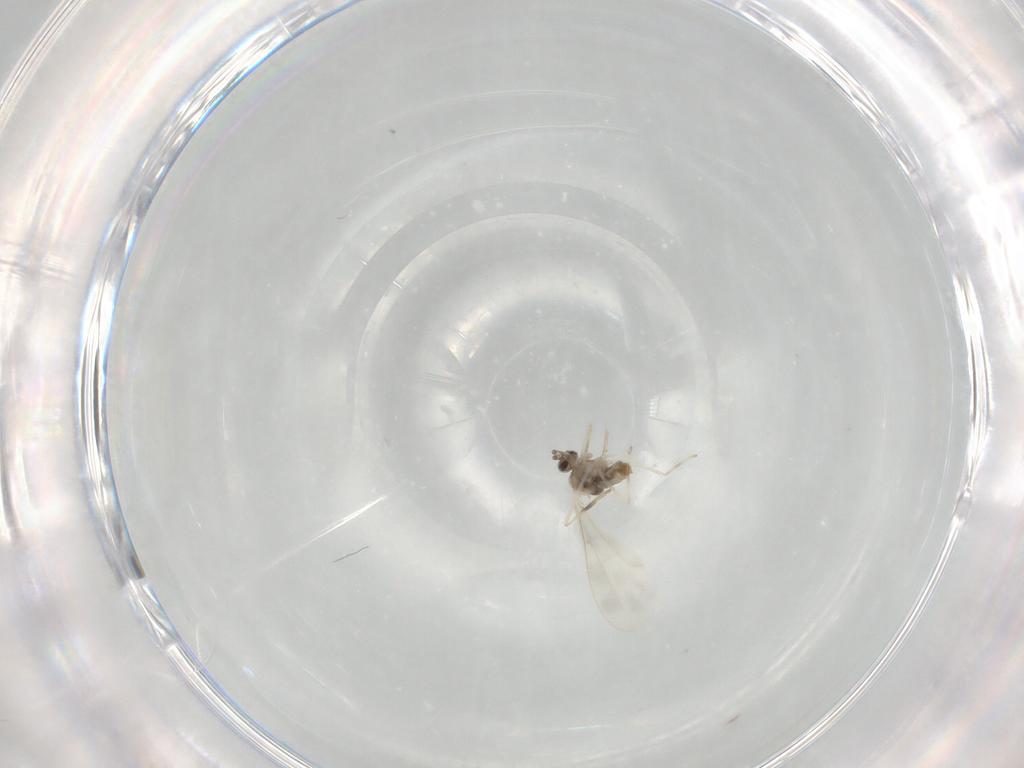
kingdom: Animalia
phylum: Arthropoda
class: Insecta
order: Diptera
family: Cecidomyiidae
